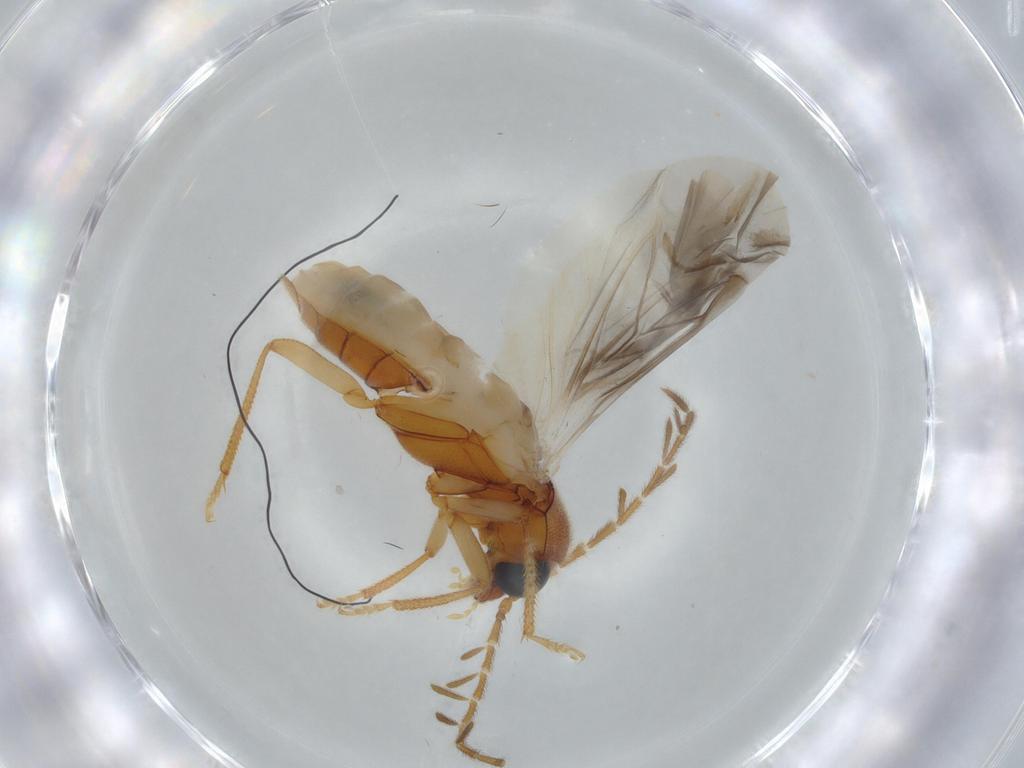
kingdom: Animalia
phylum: Arthropoda
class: Insecta
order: Coleoptera
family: Ptilodactylidae
